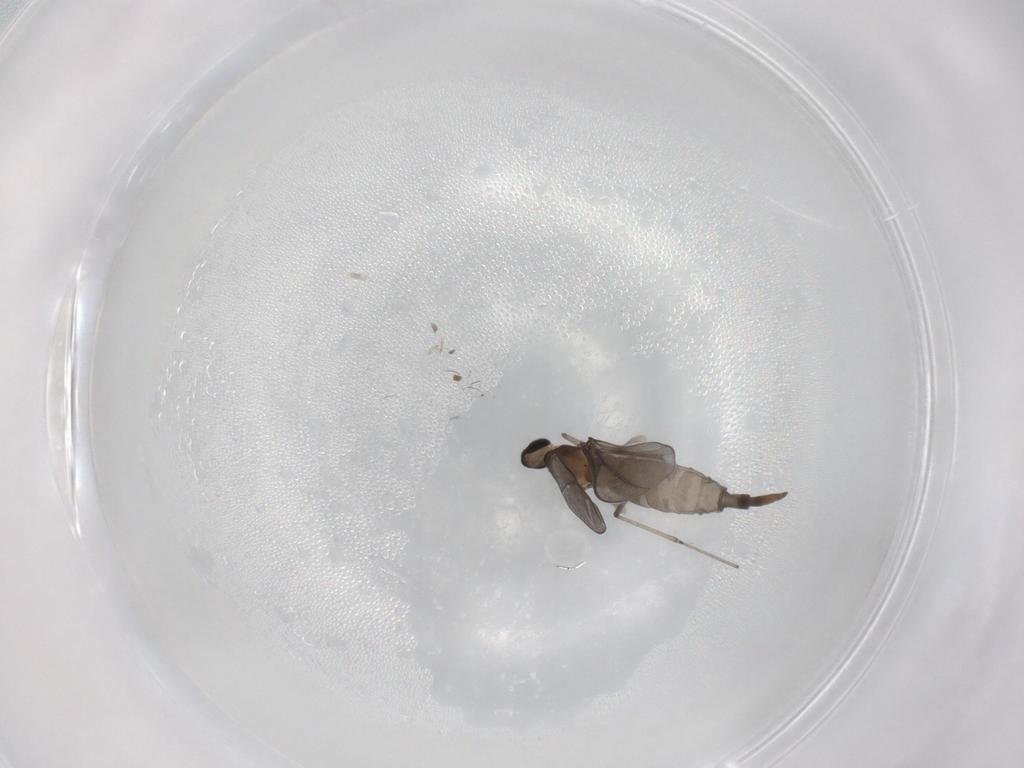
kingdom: Animalia
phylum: Arthropoda
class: Insecta
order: Diptera
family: Cecidomyiidae
